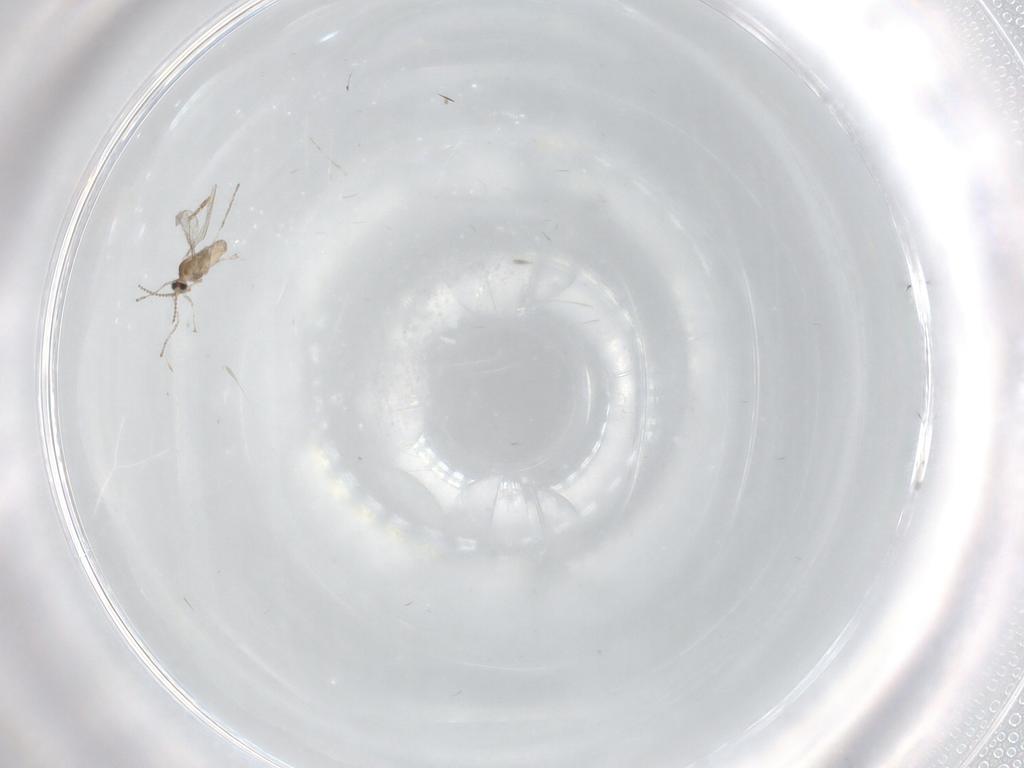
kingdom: Animalia
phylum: Arthropoda
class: Insecta
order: Diptera
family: Cecidomyiidae
